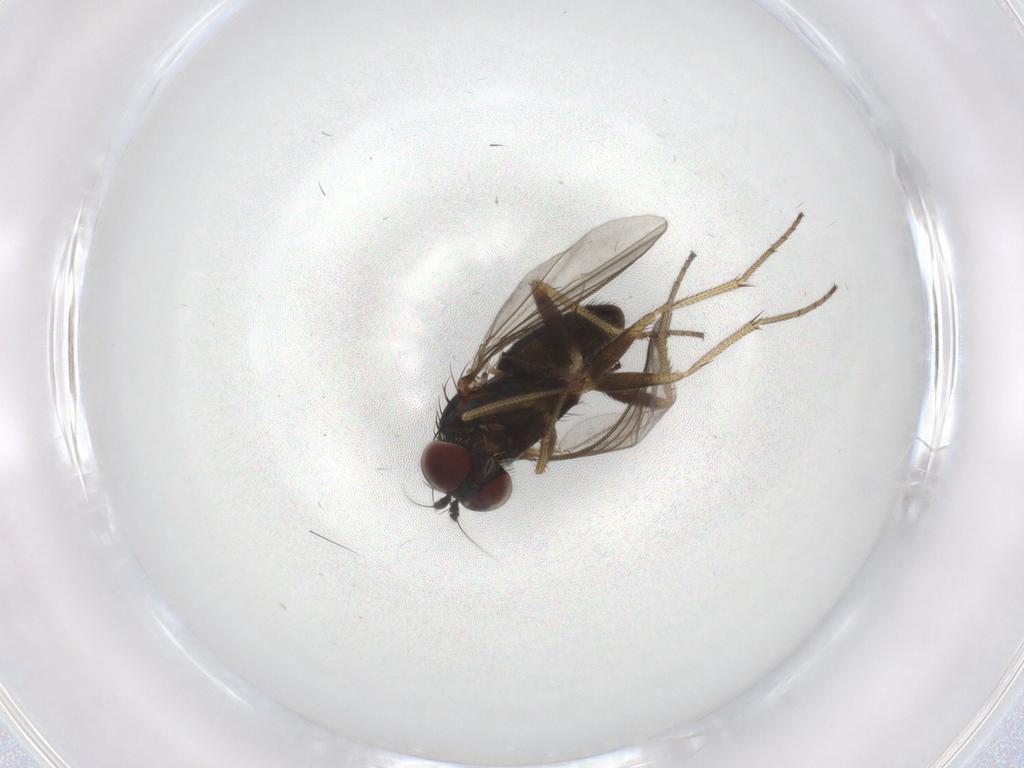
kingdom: Animalia
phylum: Arthropoda
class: Insecta
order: Diptera
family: Dolichopodidae
